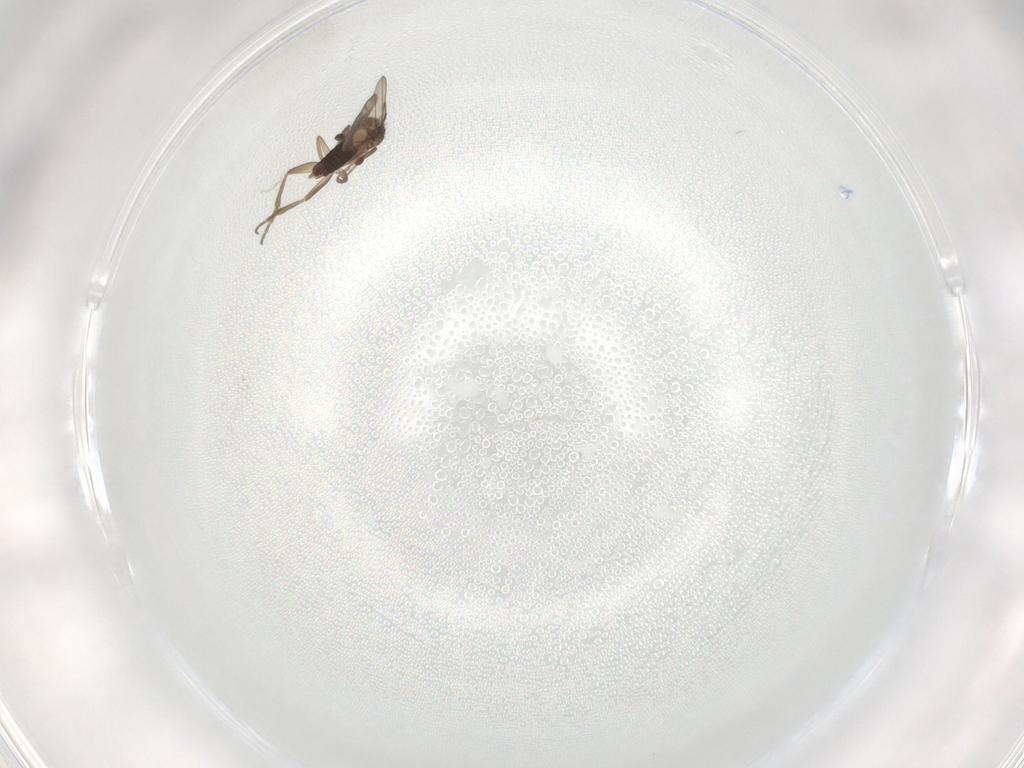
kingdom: Animalia
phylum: Arthropoda
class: Insecta
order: Diptera
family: Phoridae
